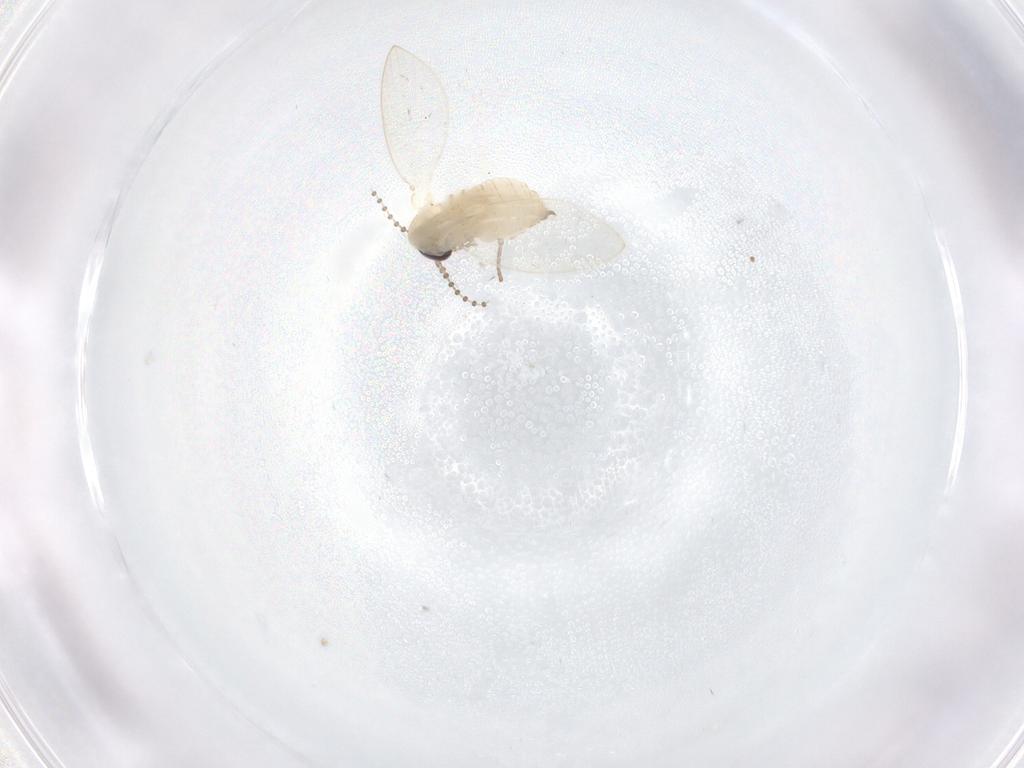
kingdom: Animalia
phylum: Arthropoda
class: Insecta
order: Diptera
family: Psychodidae
